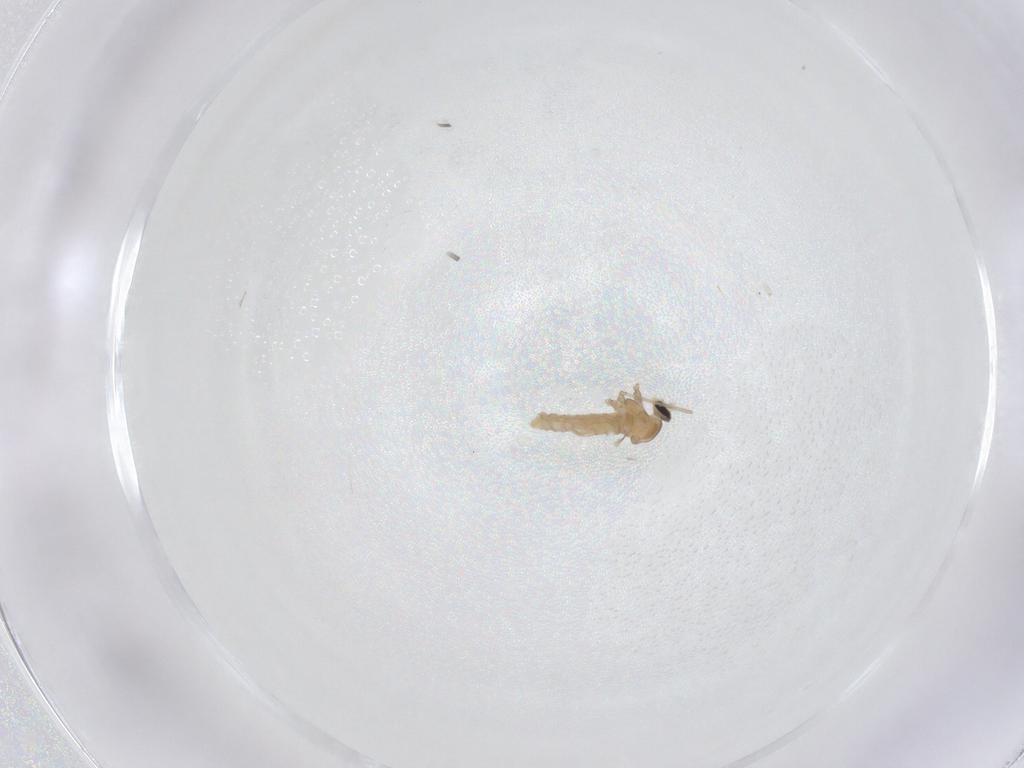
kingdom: Animalia
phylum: Arthropoda
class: Insecta
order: Diptera
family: Cecidomyiidae
